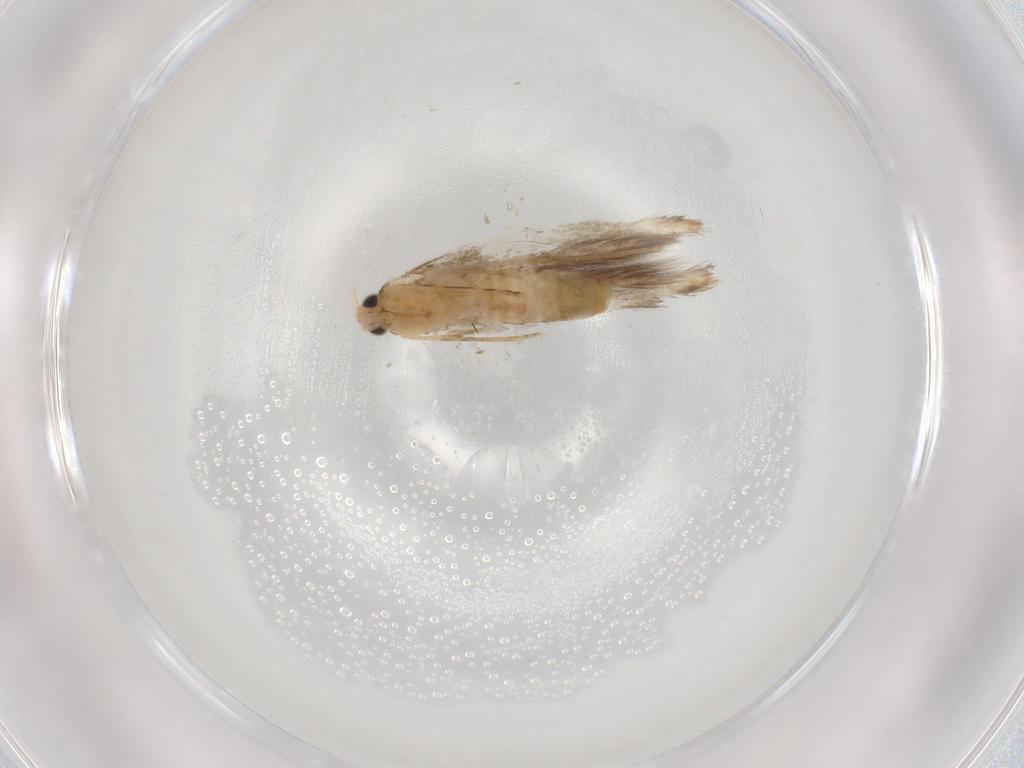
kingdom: Animalia
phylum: Arthropoda
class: Insecta
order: Lepidoptera
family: Tineidae
